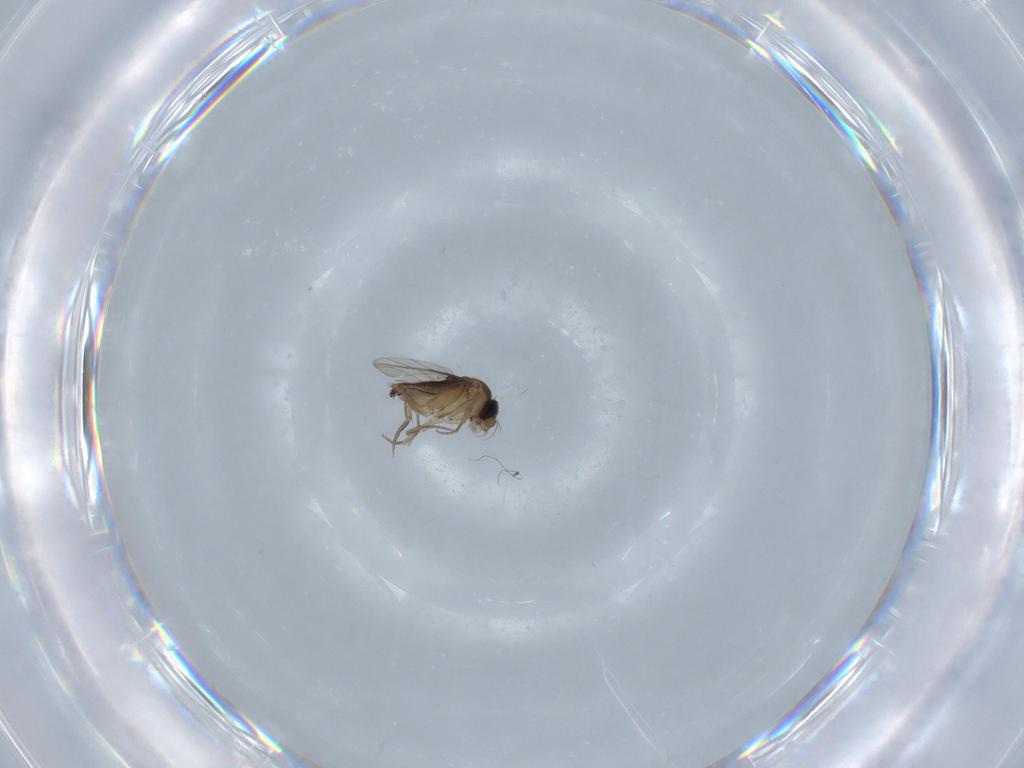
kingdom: Animalia
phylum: Arthropoda
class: Insecta
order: Diptera
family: Phoridae
